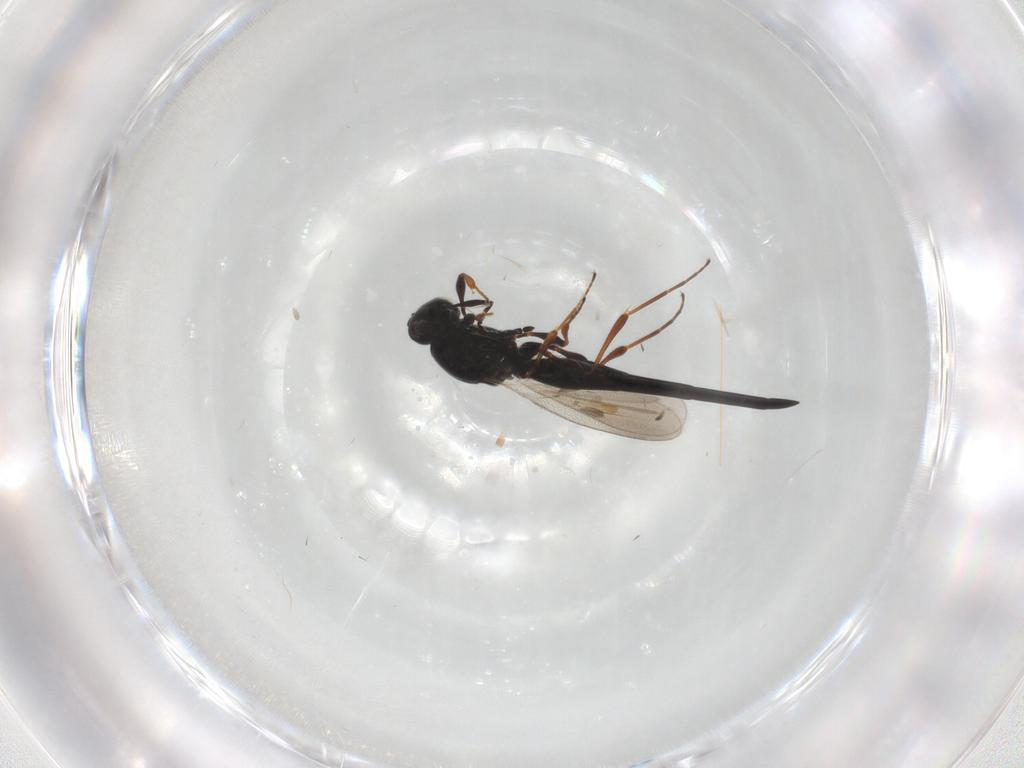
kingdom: Animalia
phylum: Arthropoda
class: Insecta
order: Hymenoptera
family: Platygastridae
